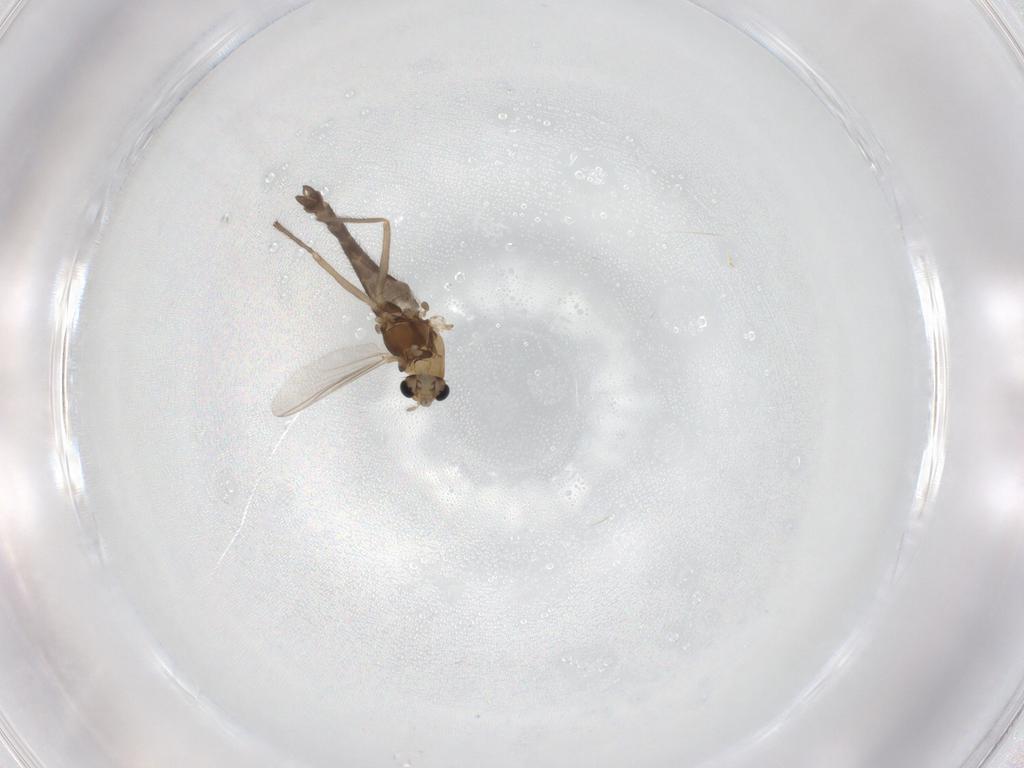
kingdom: Animalia
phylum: Arthropoda
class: Insecta
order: Diptera
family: Chironomidae
